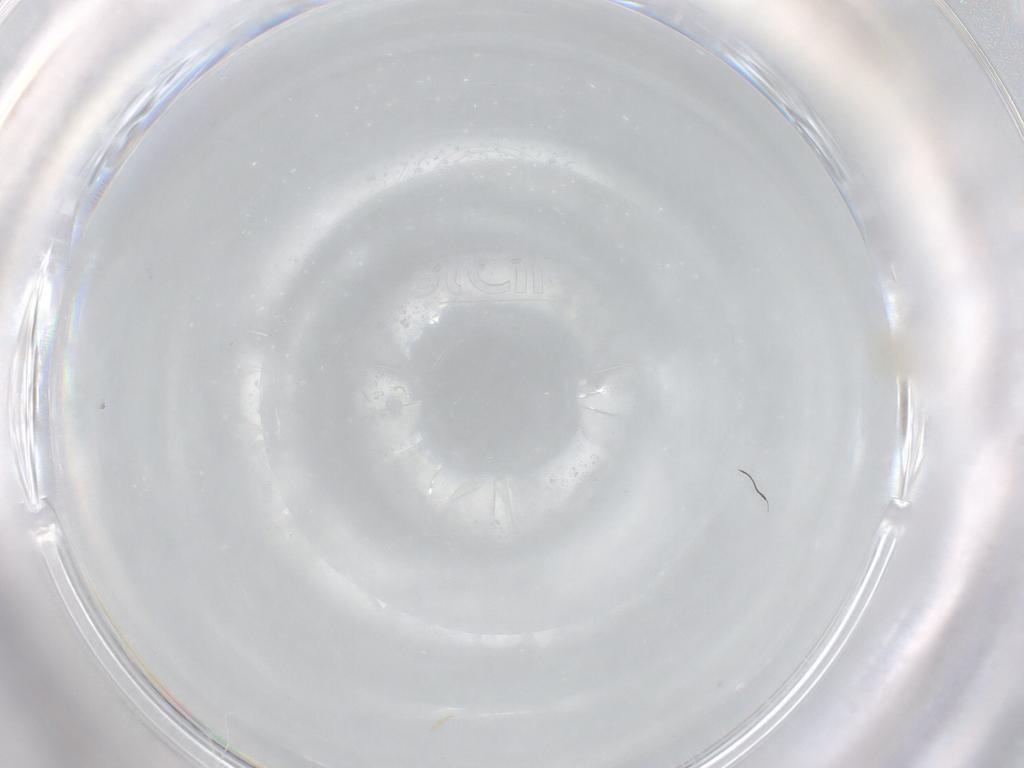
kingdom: Animalia
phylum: Arthropoda
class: Arachnida
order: Trombidiformes
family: Cunaxidae
